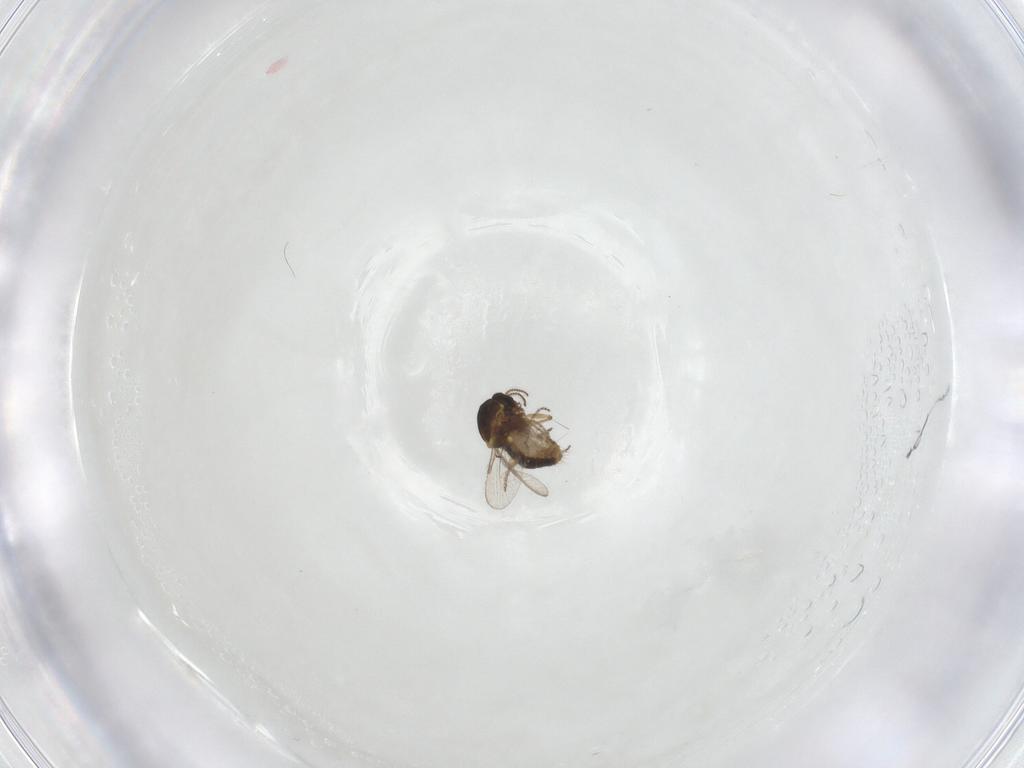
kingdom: Animalia
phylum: Arthropoda
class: Insecta
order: Diptera
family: Ceratopogonidae
